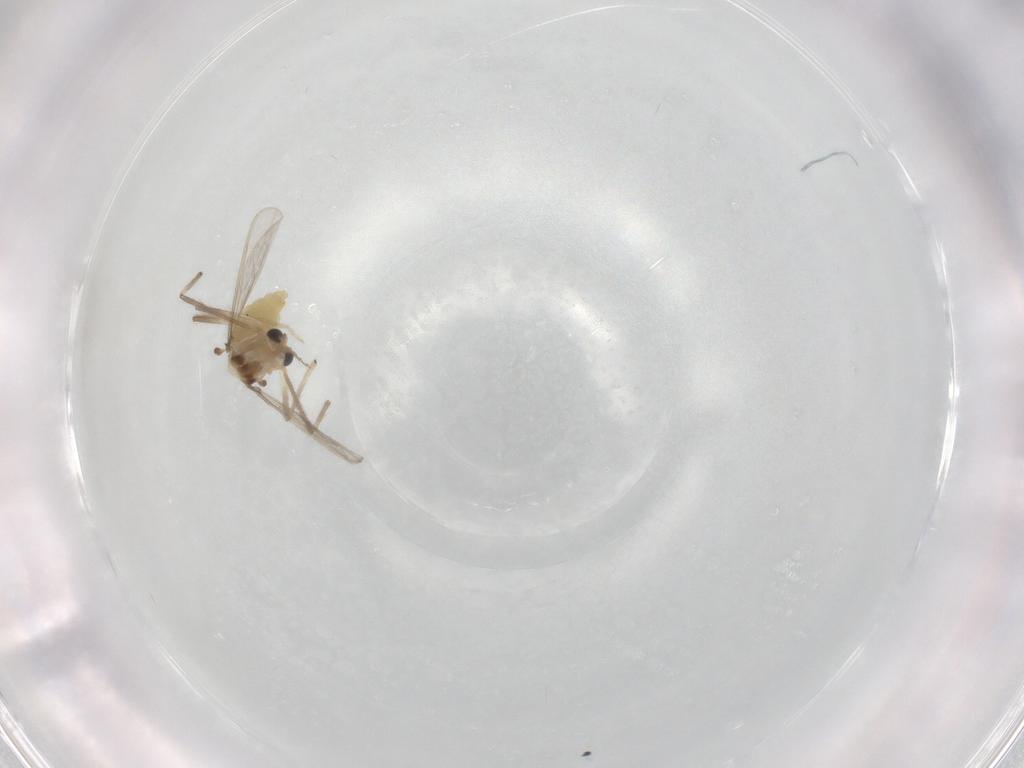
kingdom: Animalia
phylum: Arthropoda
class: Insecta
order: Diptera
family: Chironomidae
